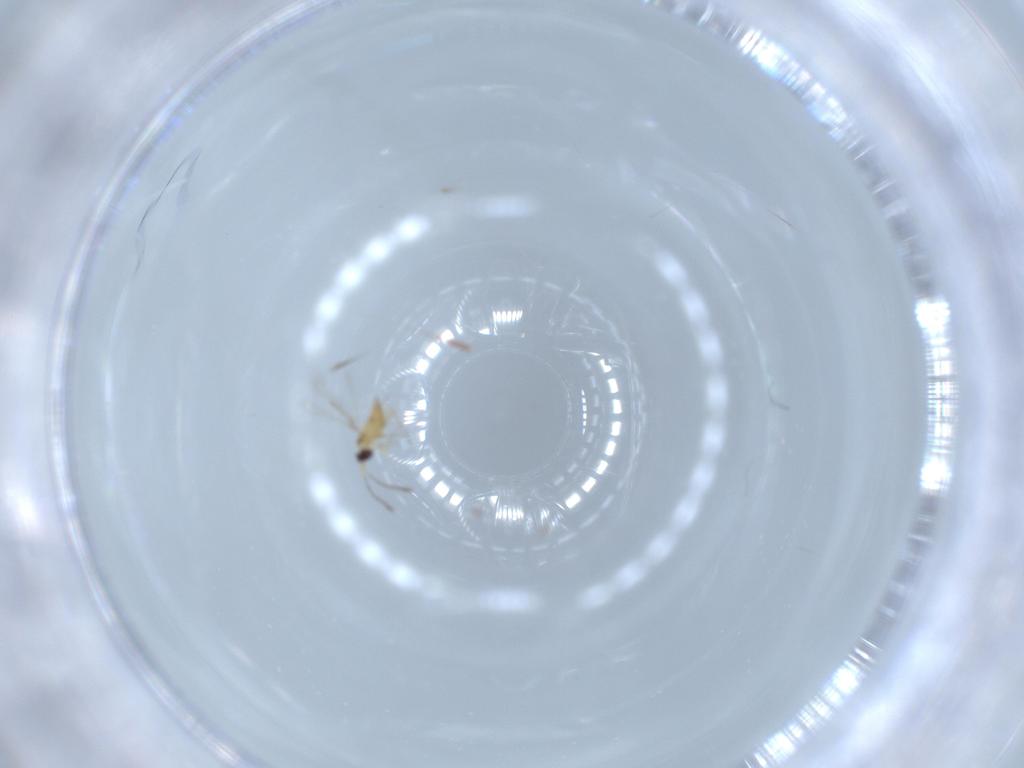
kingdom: Animalia
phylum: Arthropoda
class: Insecta
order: Hymenoptera
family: Mymaridae
